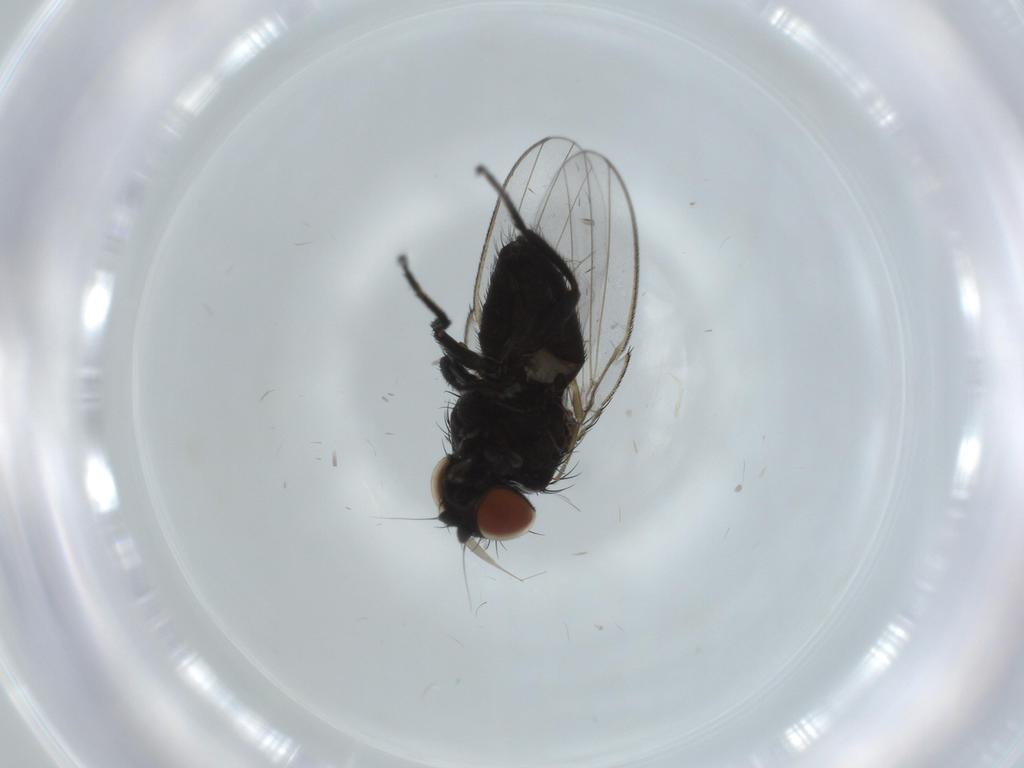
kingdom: Animalia
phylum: Arthropoda
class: Insecta
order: Diptera
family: Milichiidae
